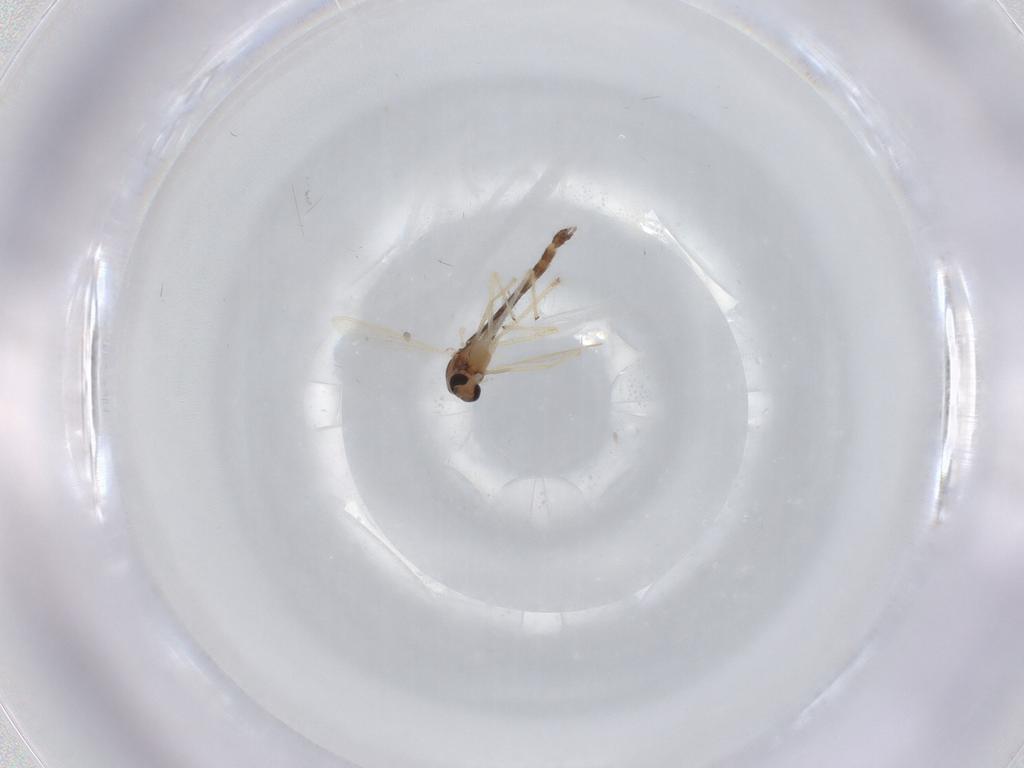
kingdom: Animalia
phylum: Arthropoda
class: Insecta
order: Diptera
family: Chironomidae
